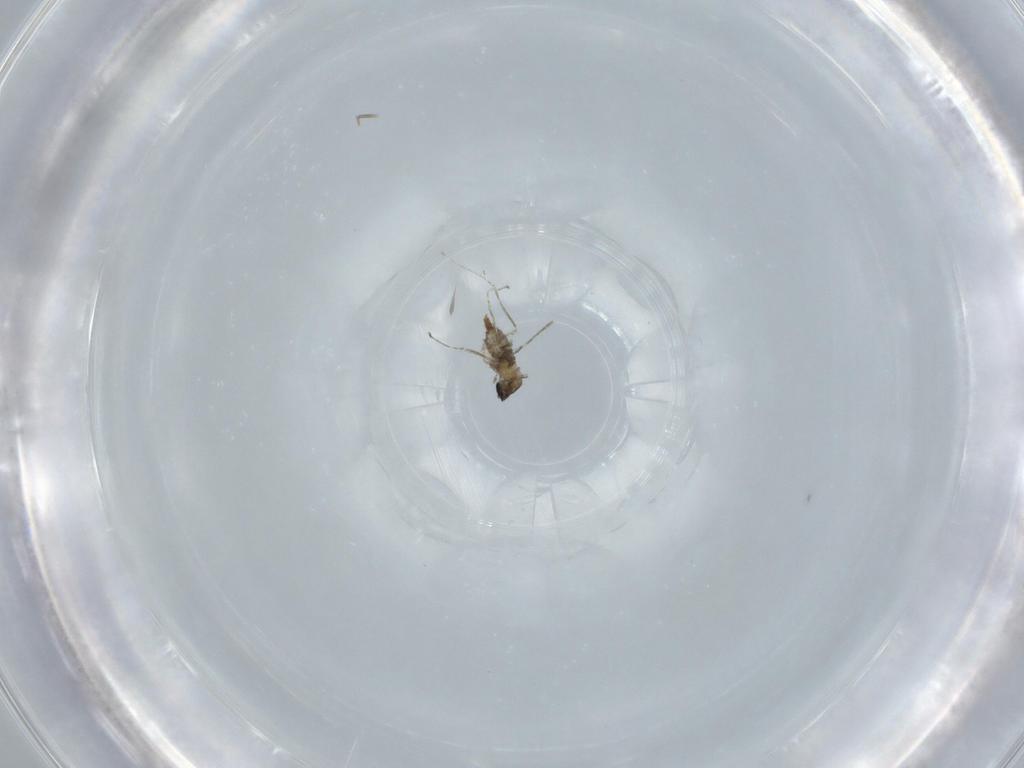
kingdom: Animalia
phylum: Arthropoda
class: Insecta
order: Diptera
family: Cecidomyiidae
